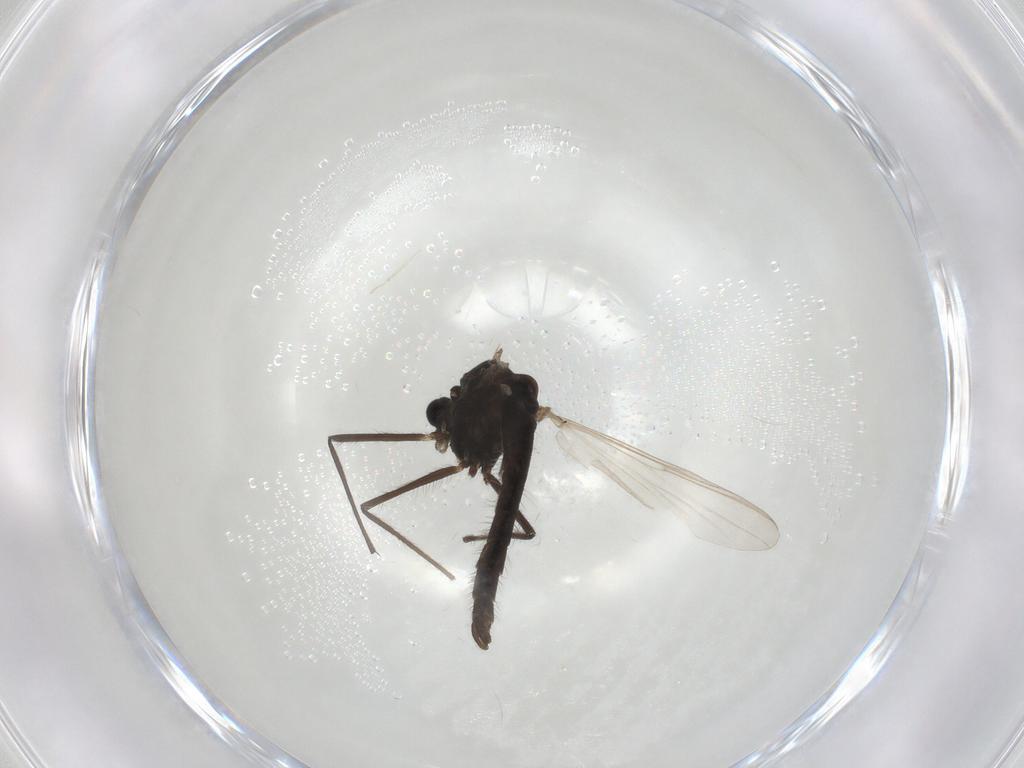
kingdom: Animalia
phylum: Arthropoda
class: Insecta
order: Diptera
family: Chironomidae
